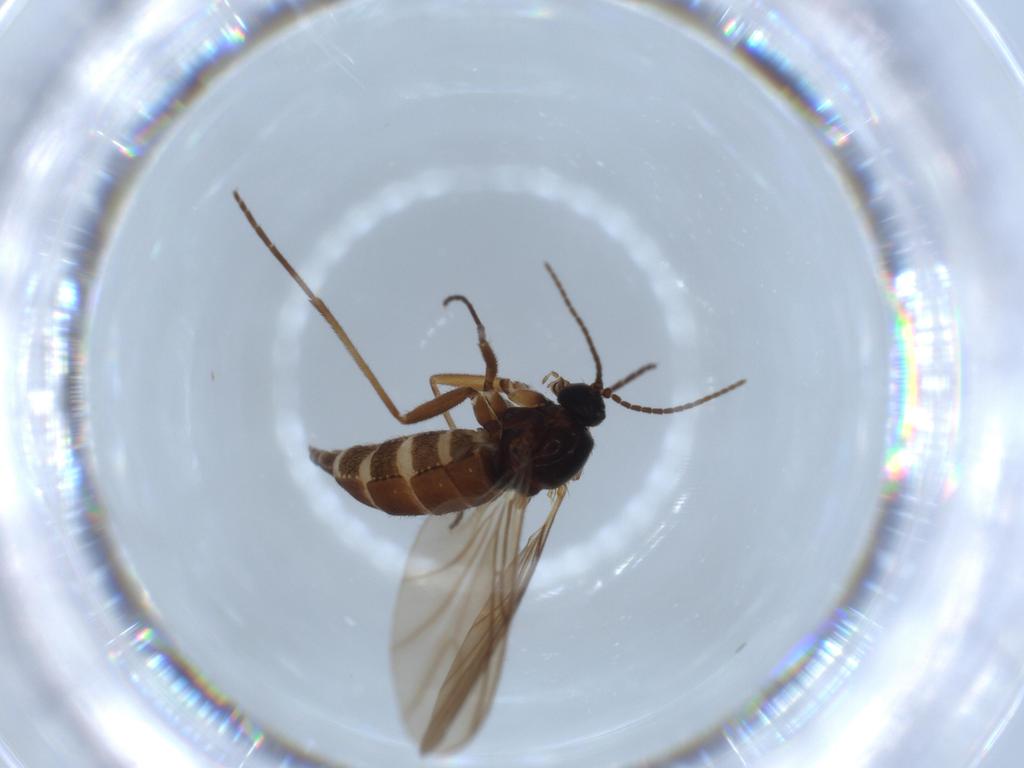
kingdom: Animalia
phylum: Arthropoda
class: Insecta
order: Diptera
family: Sciaridae
